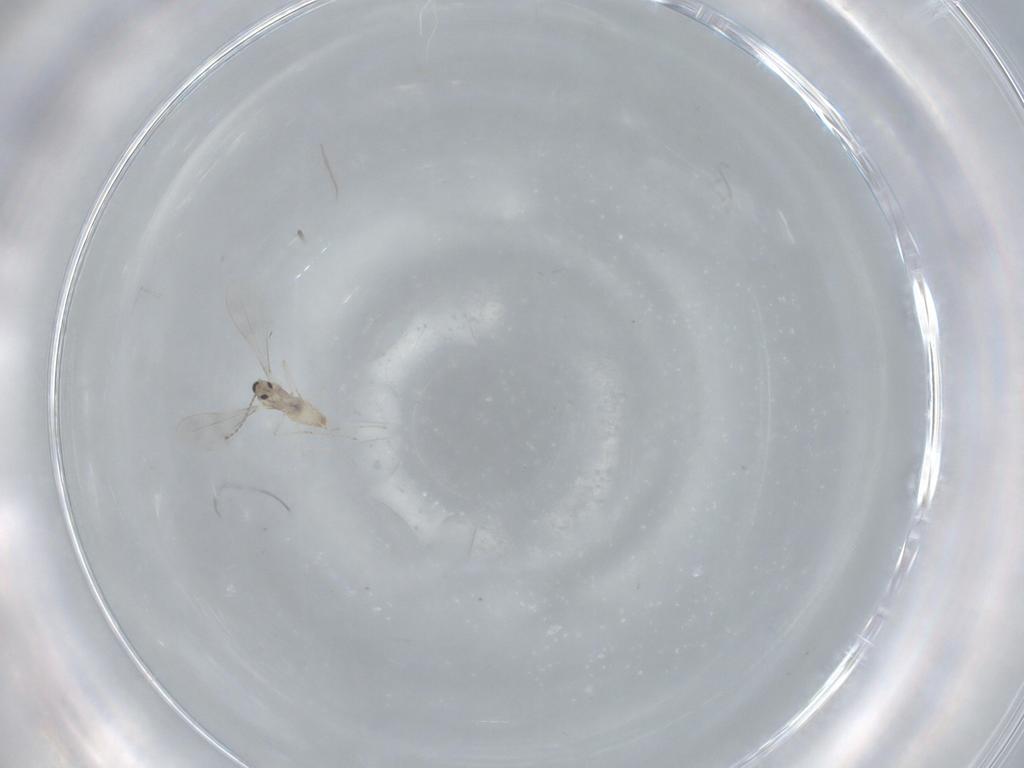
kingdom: Animalia
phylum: Arthropoda
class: Insecta
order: Diptera
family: Cecidomyiidae
